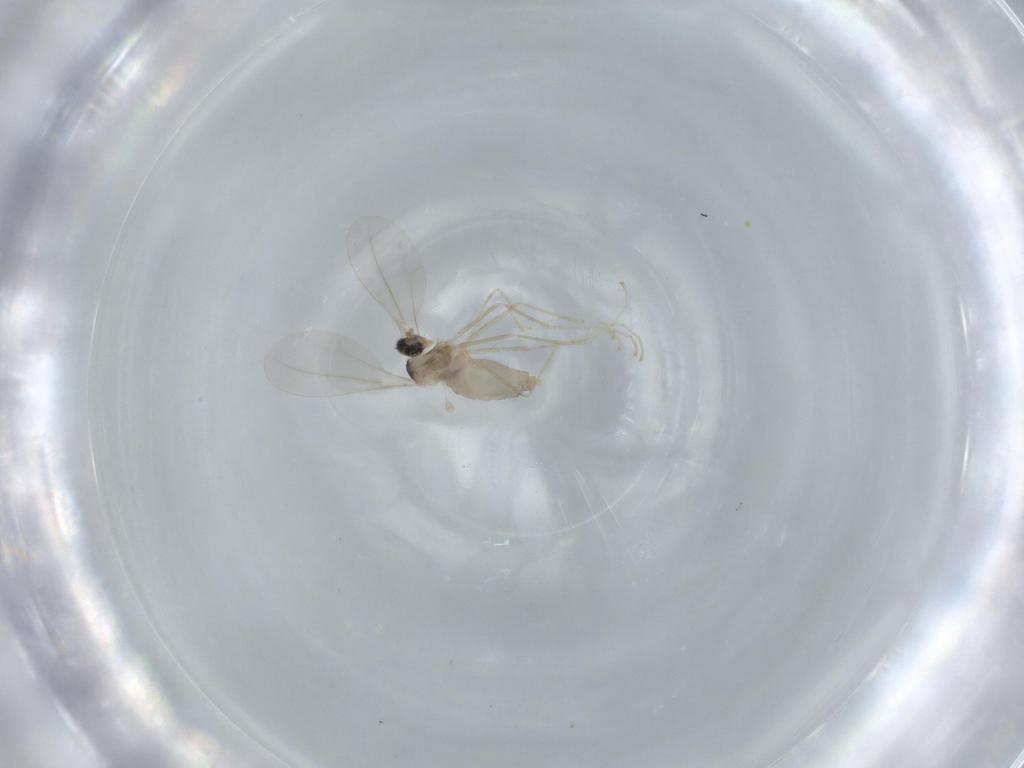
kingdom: Animalia
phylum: Arthropoda
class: Insecta
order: Diptera
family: Cecidomyiidae
